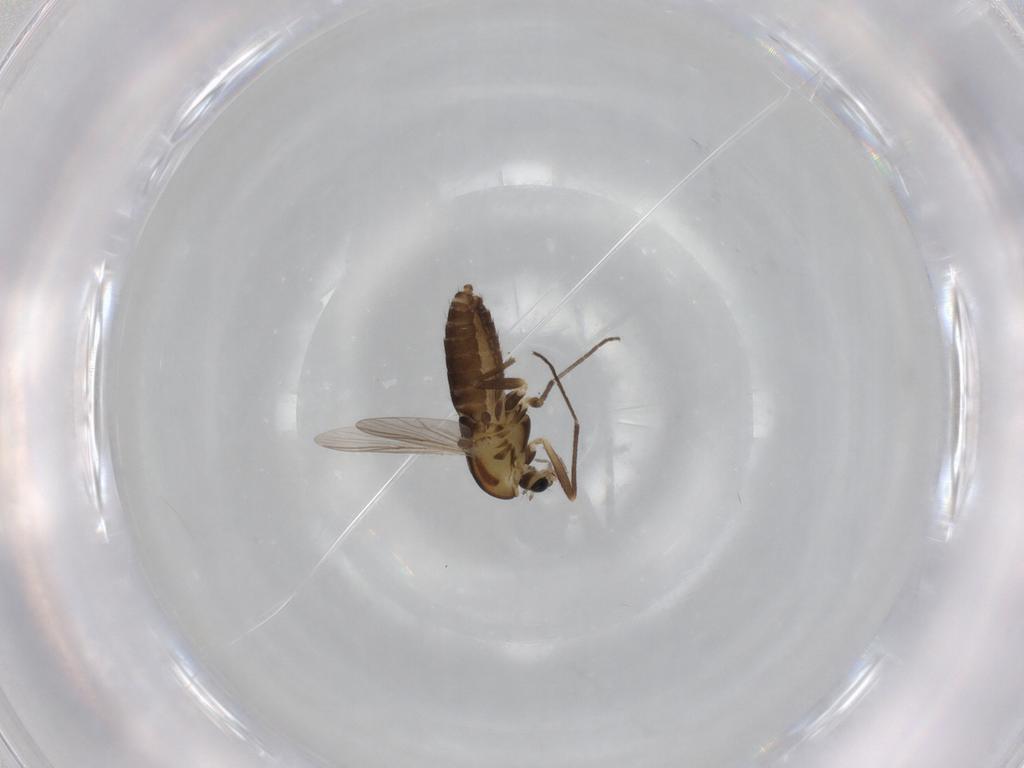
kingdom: Animalia
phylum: Arthropoda
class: Insecta
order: Diptera
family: Chironomidae
